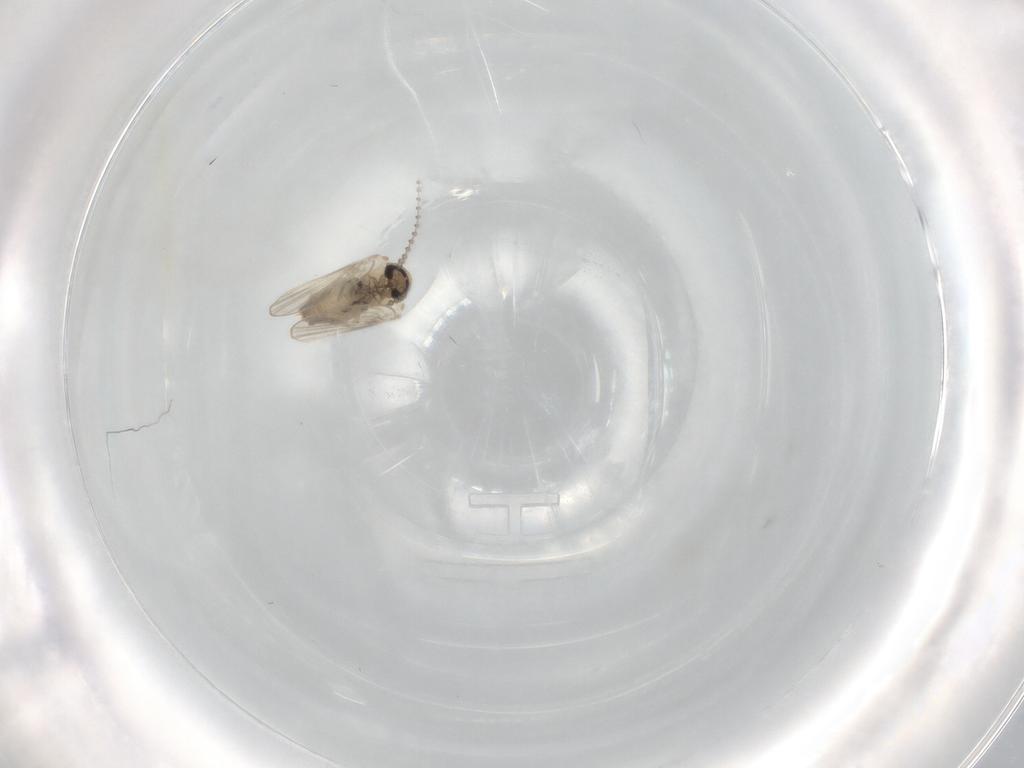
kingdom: Animalia
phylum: Arthropoda
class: Insecta
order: Diptera
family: Psychodidae
